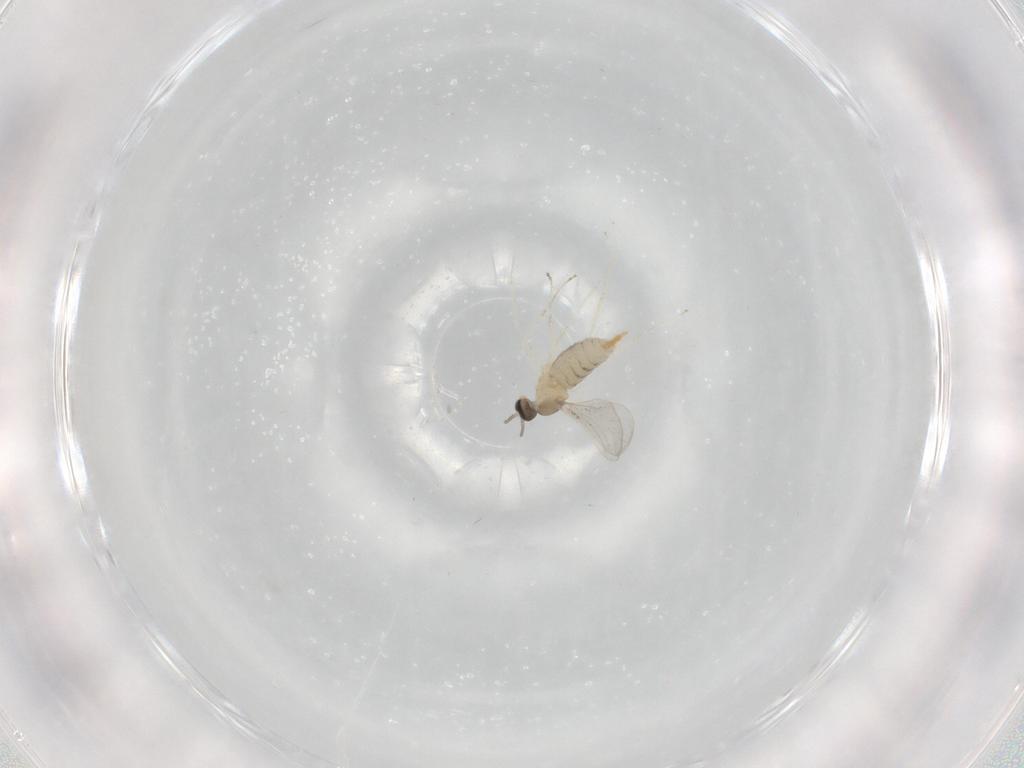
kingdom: Animalia
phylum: Arthropoda
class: Insecta
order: Diptera
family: Cecidomyiidae
